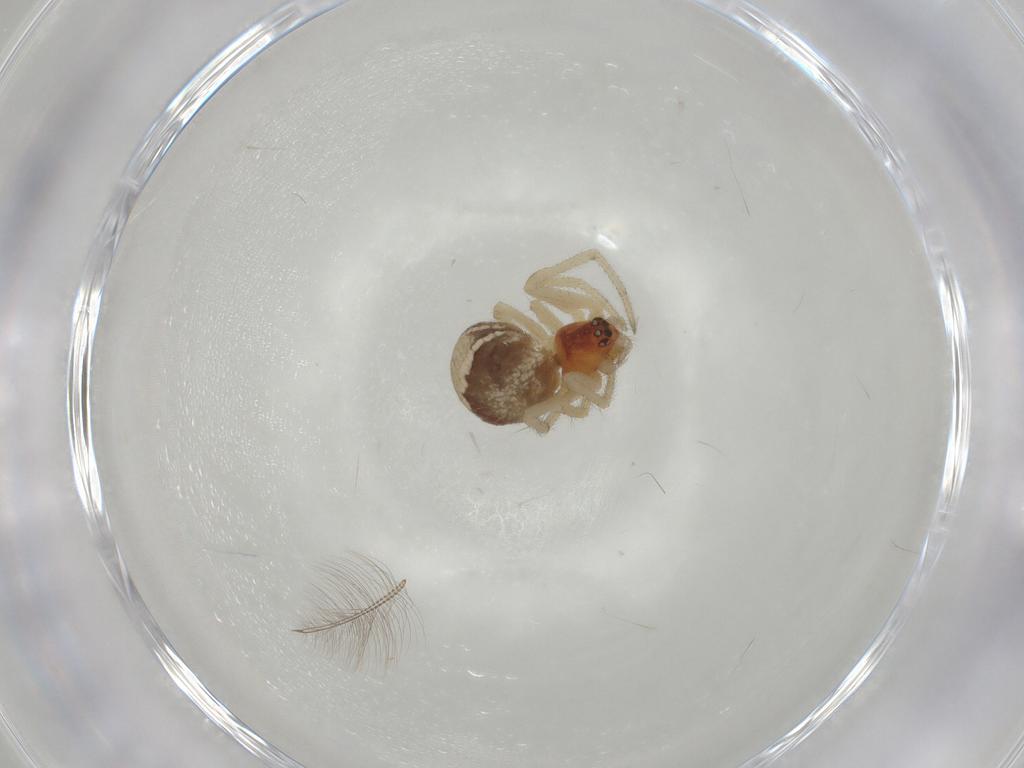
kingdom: Animalia
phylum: Arthropoda
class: Arachnida
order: Araneae
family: Theridiidae
